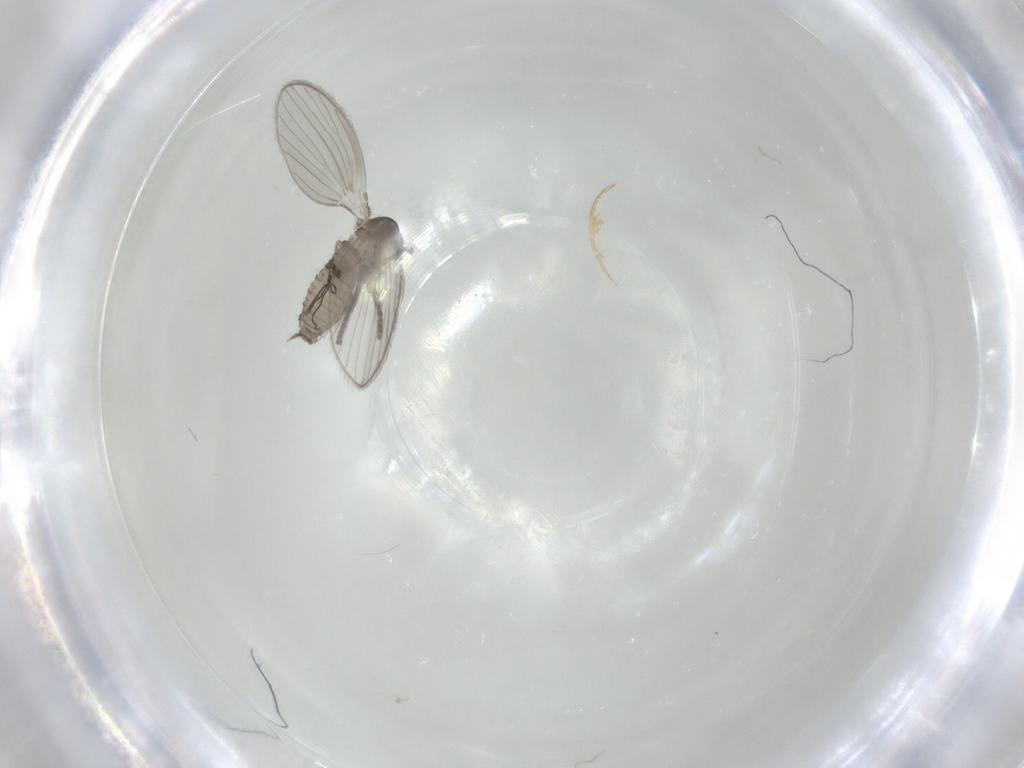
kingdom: Animalia
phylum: Arthropoda
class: Insecta
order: Diptera
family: Psychodidae
